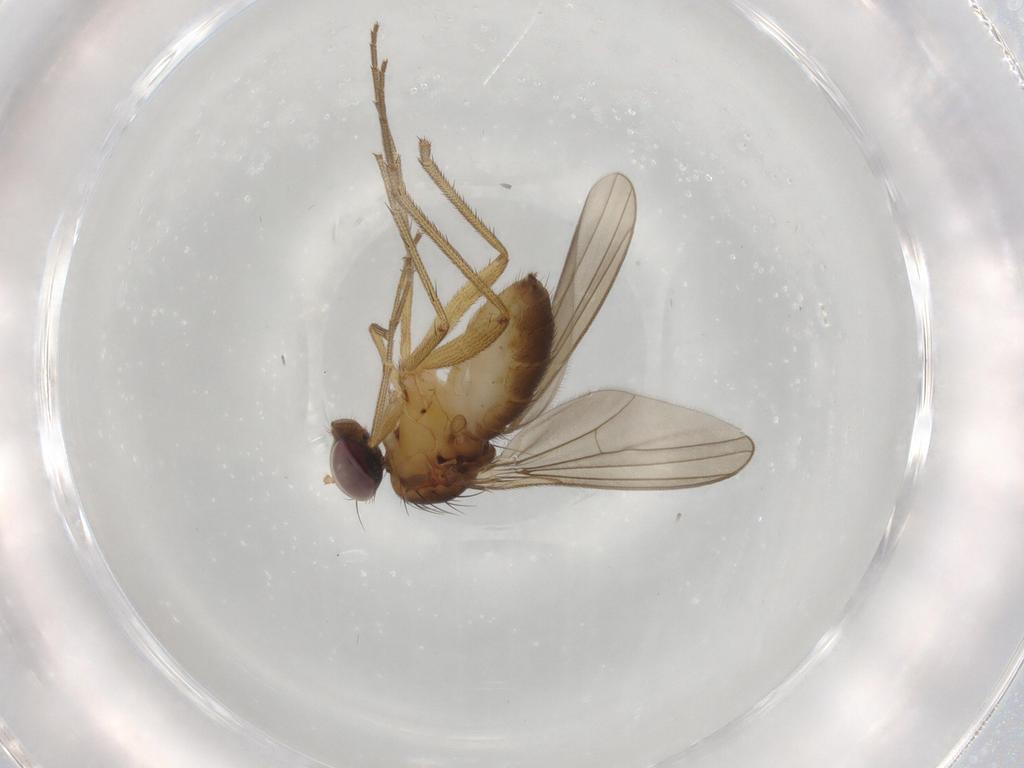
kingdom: Animalia
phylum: Arthropoda
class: Insecta
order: Diptera
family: Dolichopodidae
